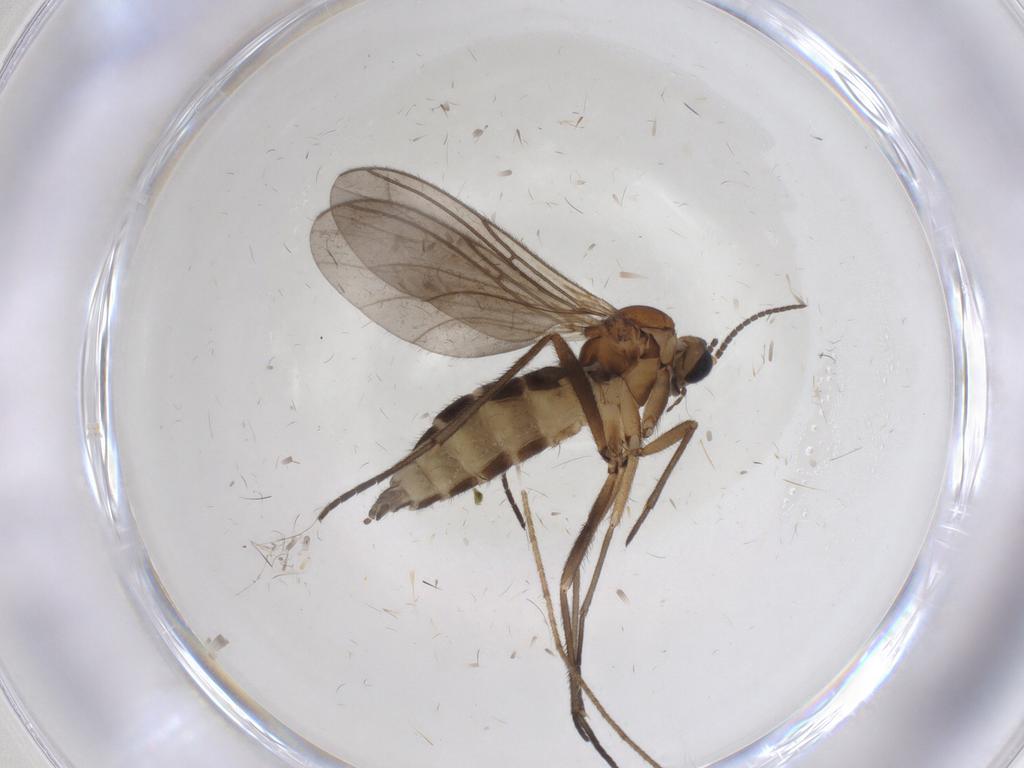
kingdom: Animalia
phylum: Arthropoda
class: Insecta
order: Diptera
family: Sciaridae
